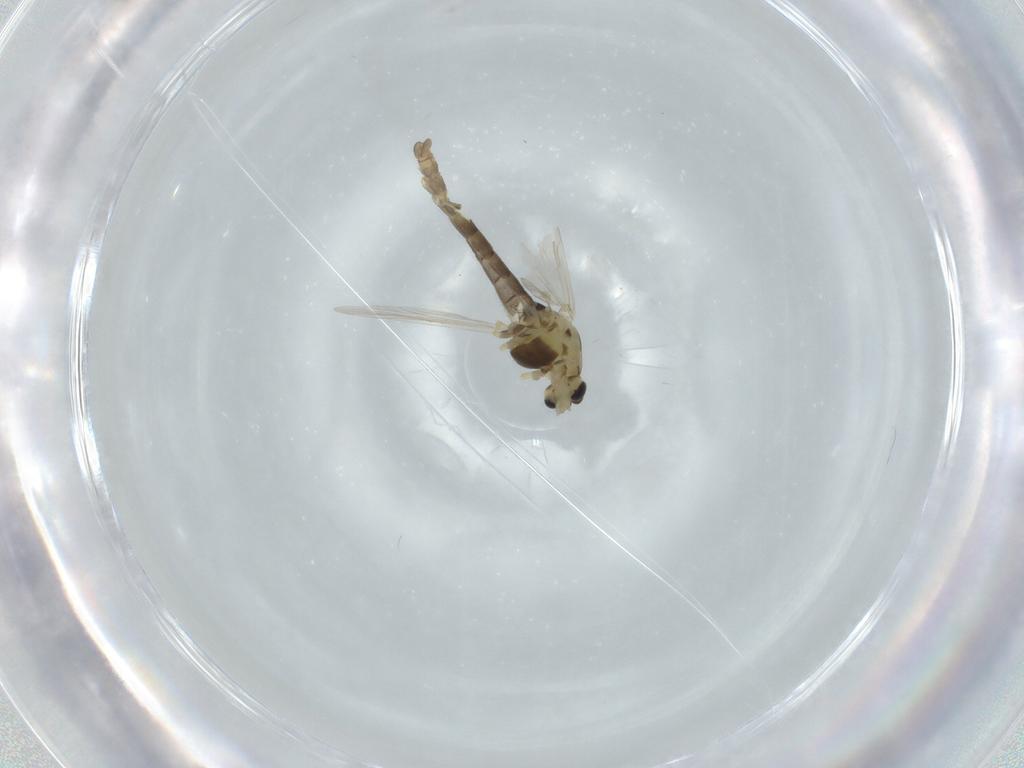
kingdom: Animalia
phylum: Arthropoda
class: Insecta
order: Diptera
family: Chironomidae
